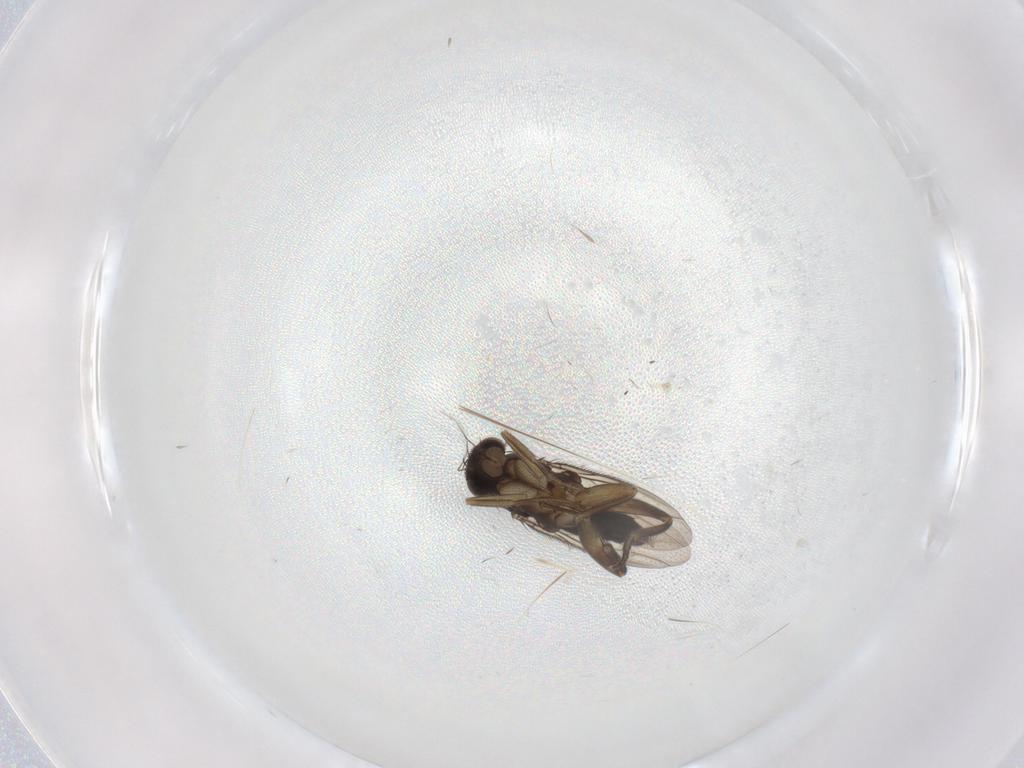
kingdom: Animalia
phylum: Arthropoda
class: Insecta
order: Diptera
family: Phoridae
